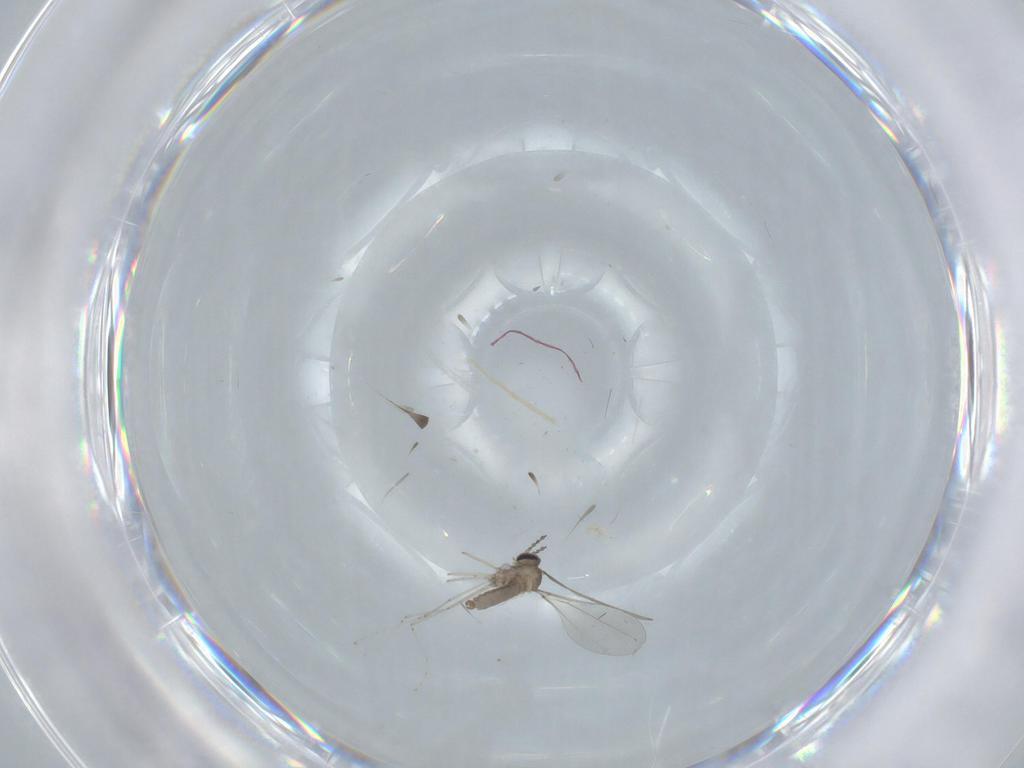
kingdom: Animalia
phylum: Arthropoda
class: Insecta
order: Diptera
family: Cecidomyiidae
